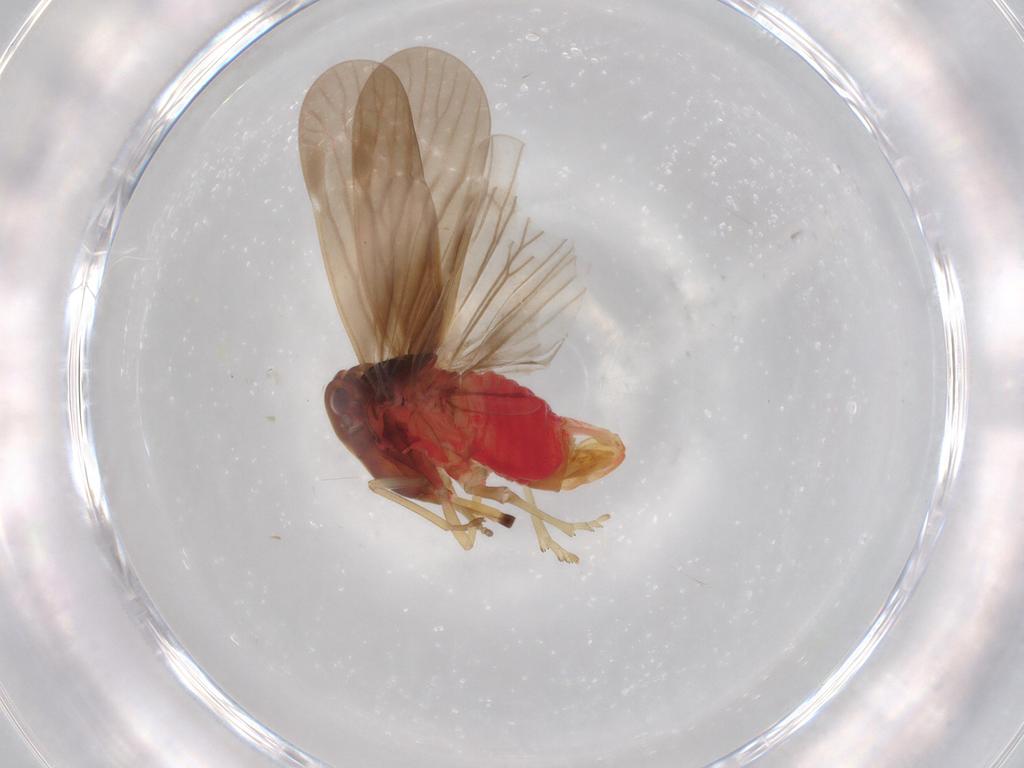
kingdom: Animalia
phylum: Arthropoda
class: Insecta
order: Hemiptera
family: Derbidae
